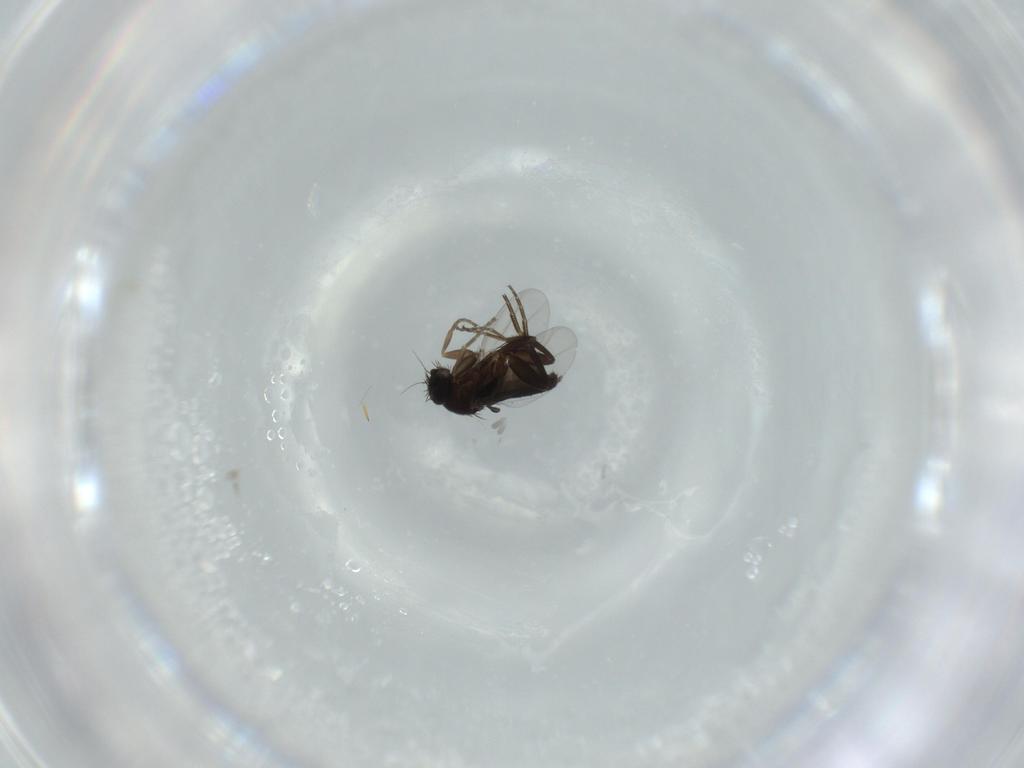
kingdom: Animalia
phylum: Arthropoda
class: Insecta
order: Diptera
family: Phoridae
